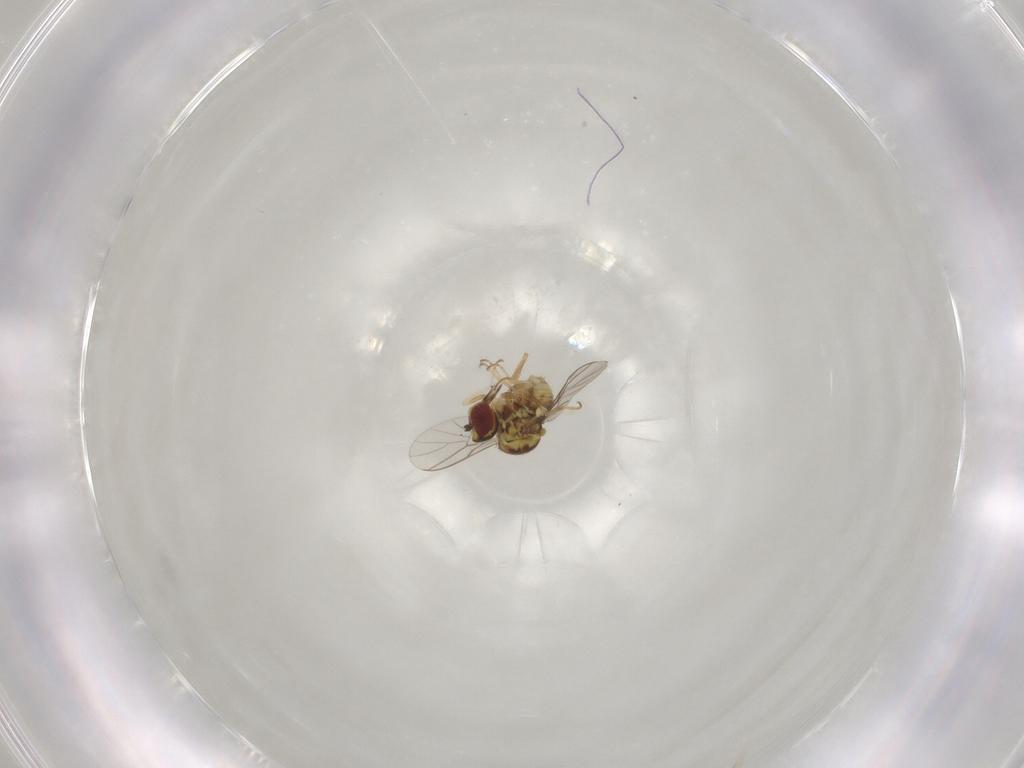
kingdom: Animalia
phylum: Arthropoda
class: Insecta
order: Diptera
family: Mythicomyiidae
